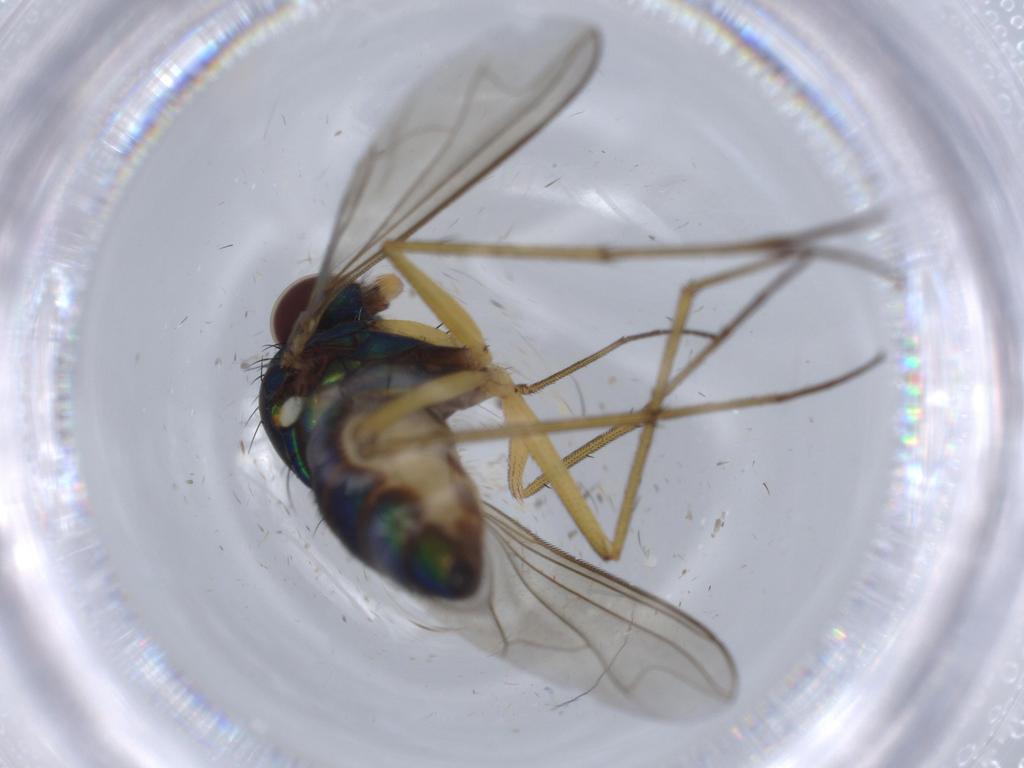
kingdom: Animalia
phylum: Arthropoda
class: Insecta
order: Diptera
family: Dolichopodidae
